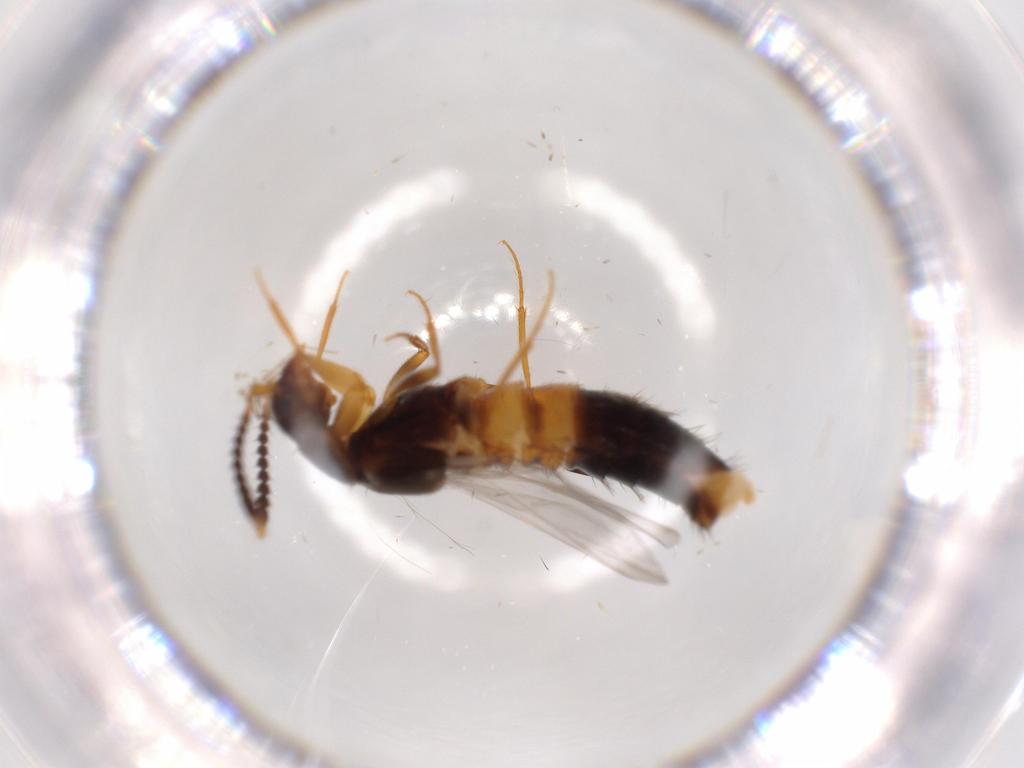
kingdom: Animalia
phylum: Arthropoda
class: Insecta
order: Coleoptera
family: Staphylinidae
